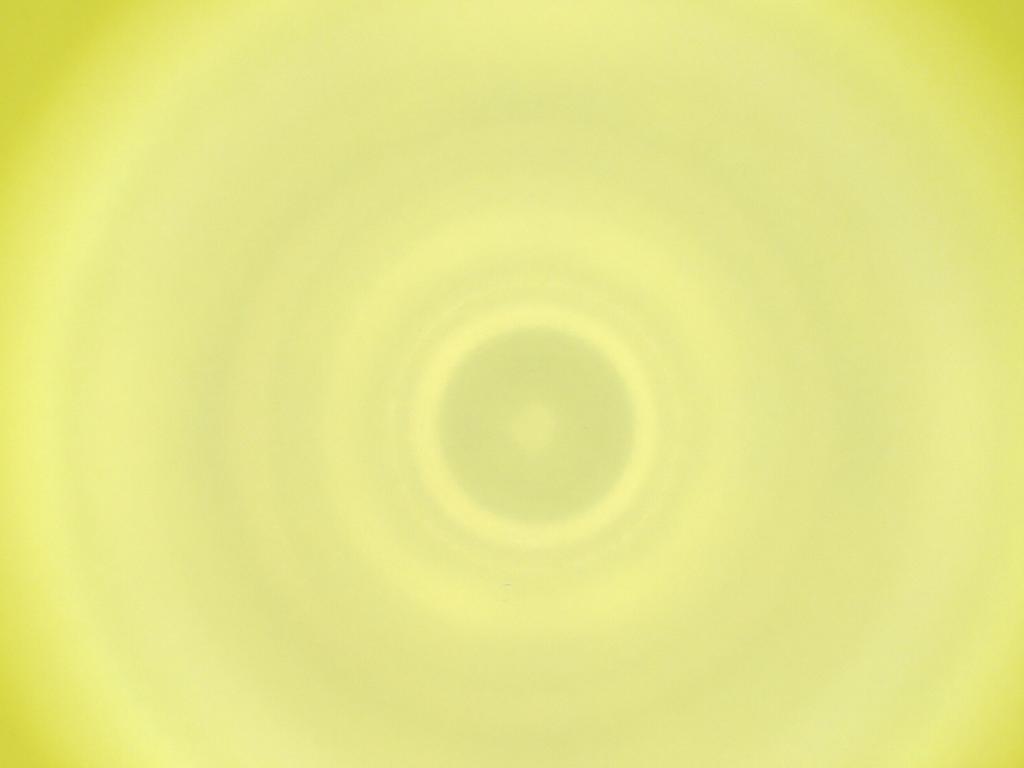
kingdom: Animalia
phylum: Arthropoda
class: Insecta
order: Diptera
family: Cecidomyiidae
